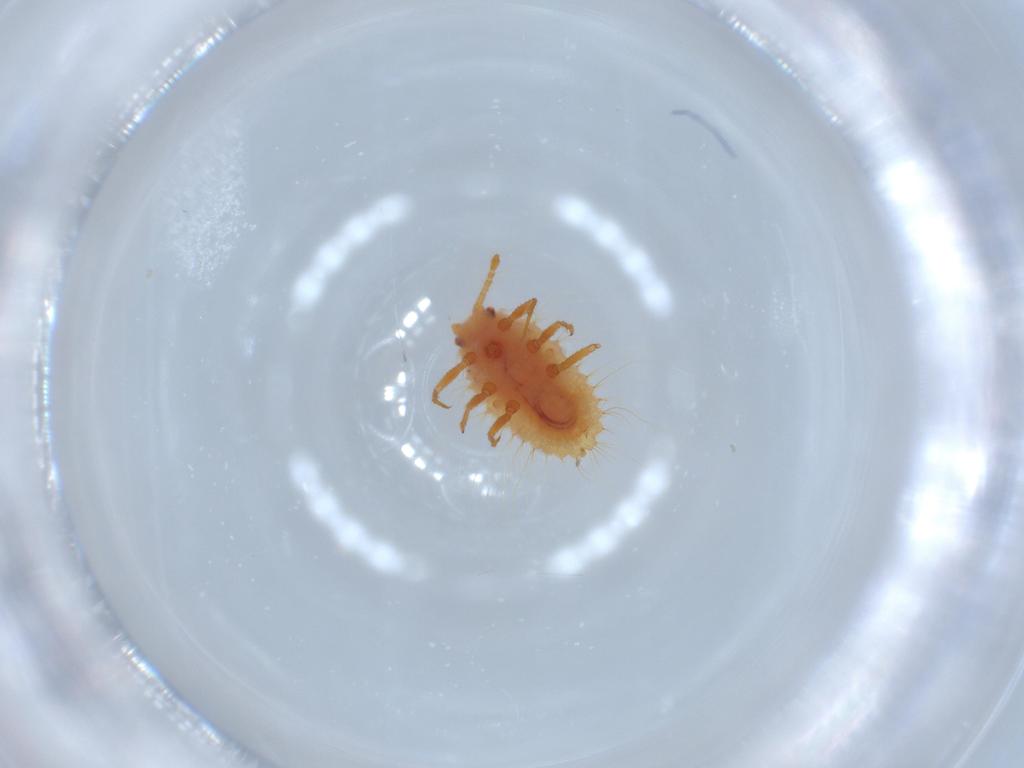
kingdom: Animalia
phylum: Arthropoda
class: Insecta
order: Hemiptera
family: Coccoidea_incertae_sedis
